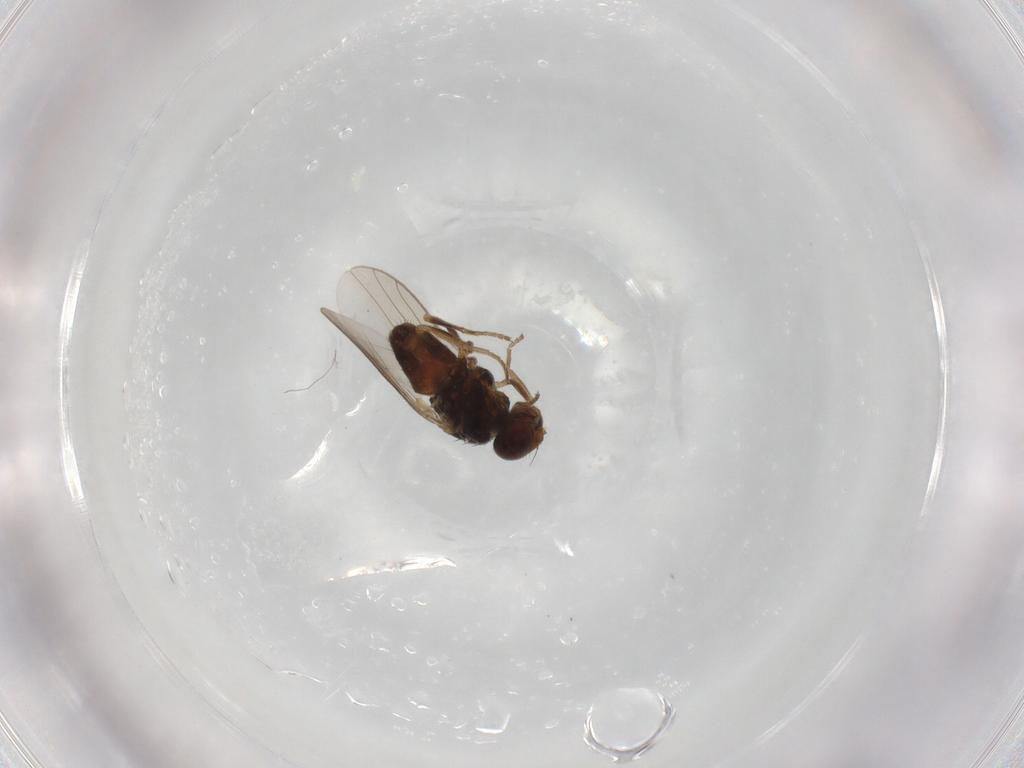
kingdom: Animalia
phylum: Arthropoda
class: Insecta
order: Diptera
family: Chloropidae
